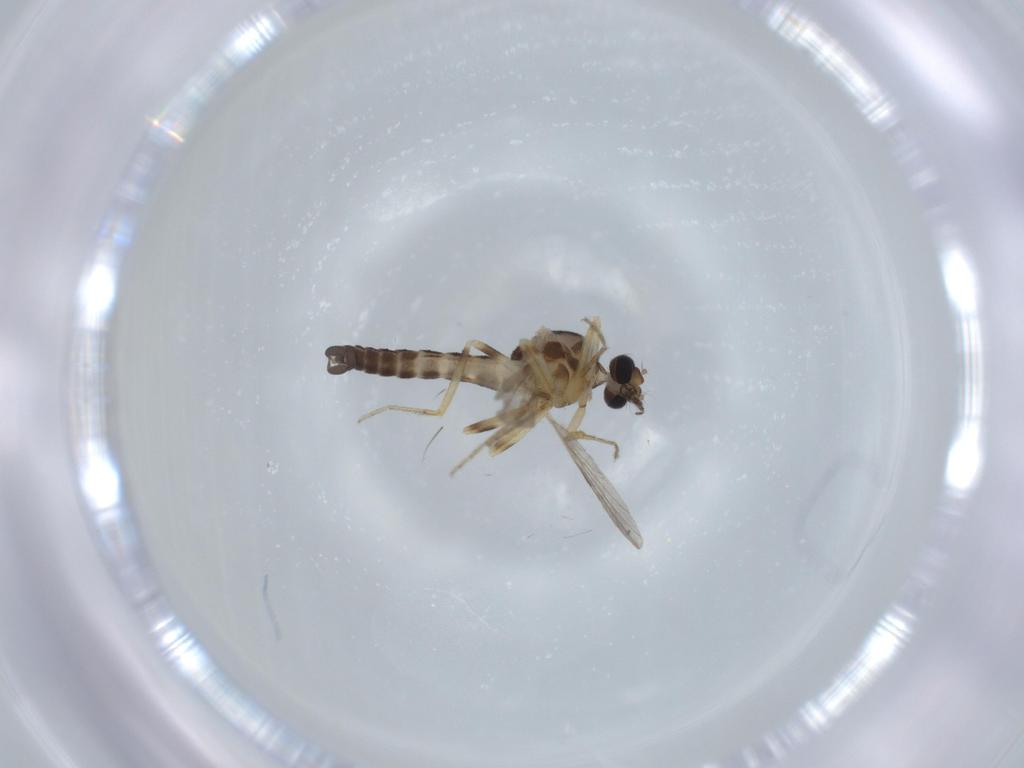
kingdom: Animalia
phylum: Arthropoda
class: Insecta
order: Diptera
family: Ceratopogonidae
